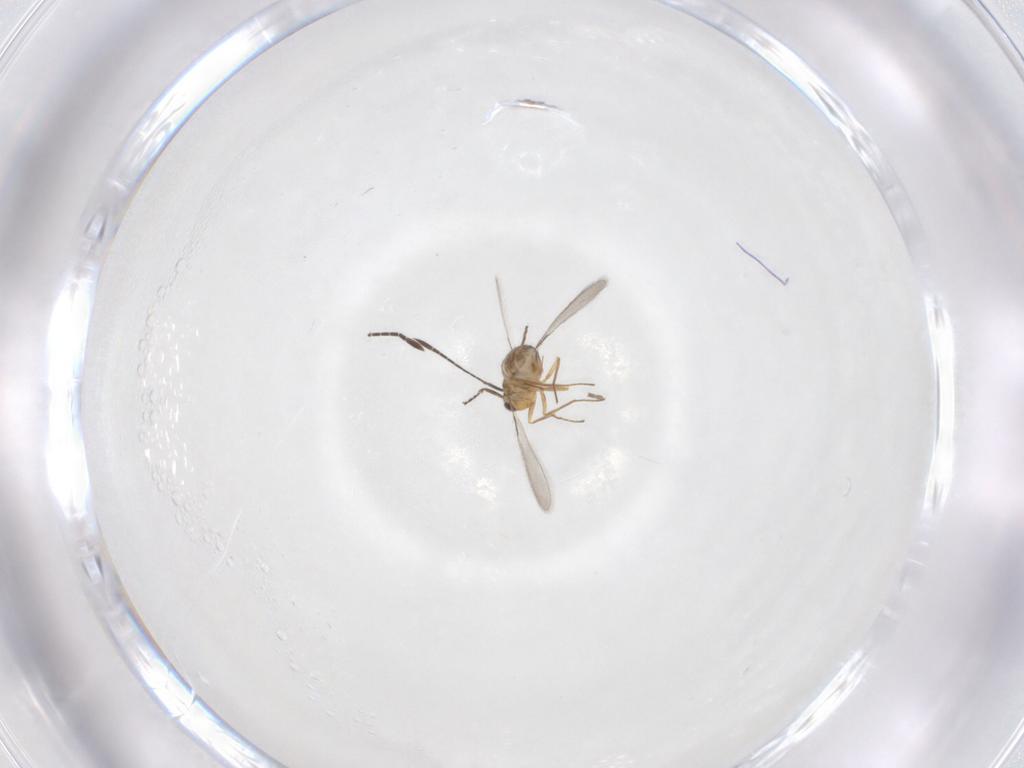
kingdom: Animalia
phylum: Arthropoda
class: Insecta
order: Hymenoptera
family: Mymaridae
